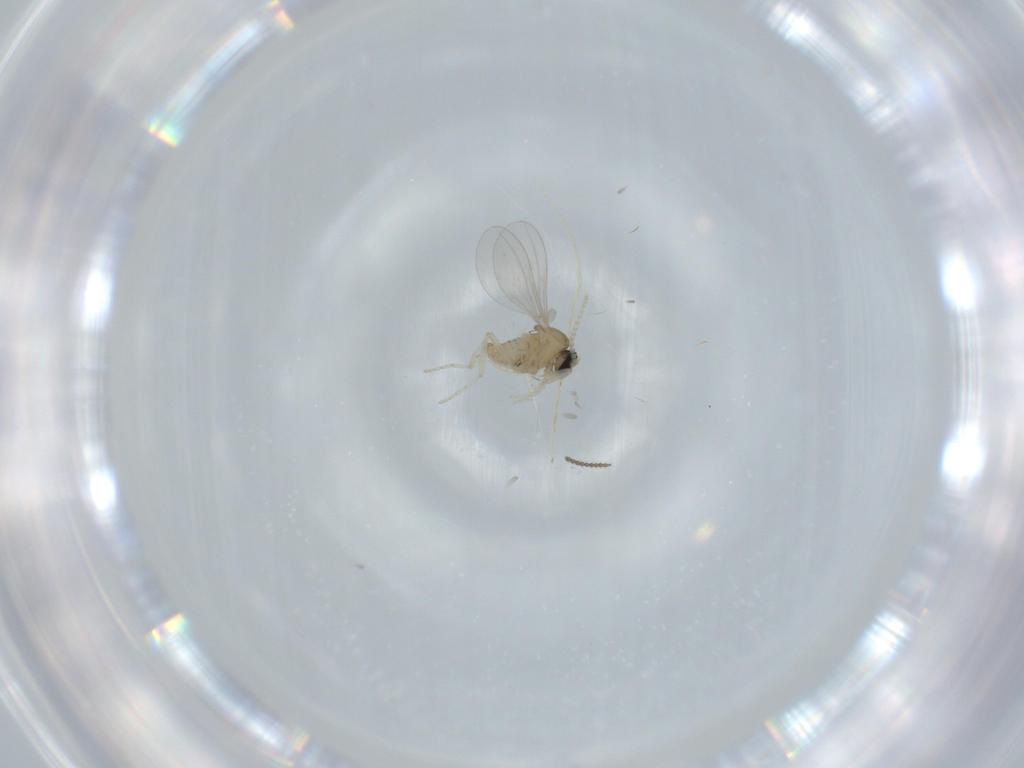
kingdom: Animalia
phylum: Arthropoda
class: Insecta
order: Diptera
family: Cecidomyiidae
